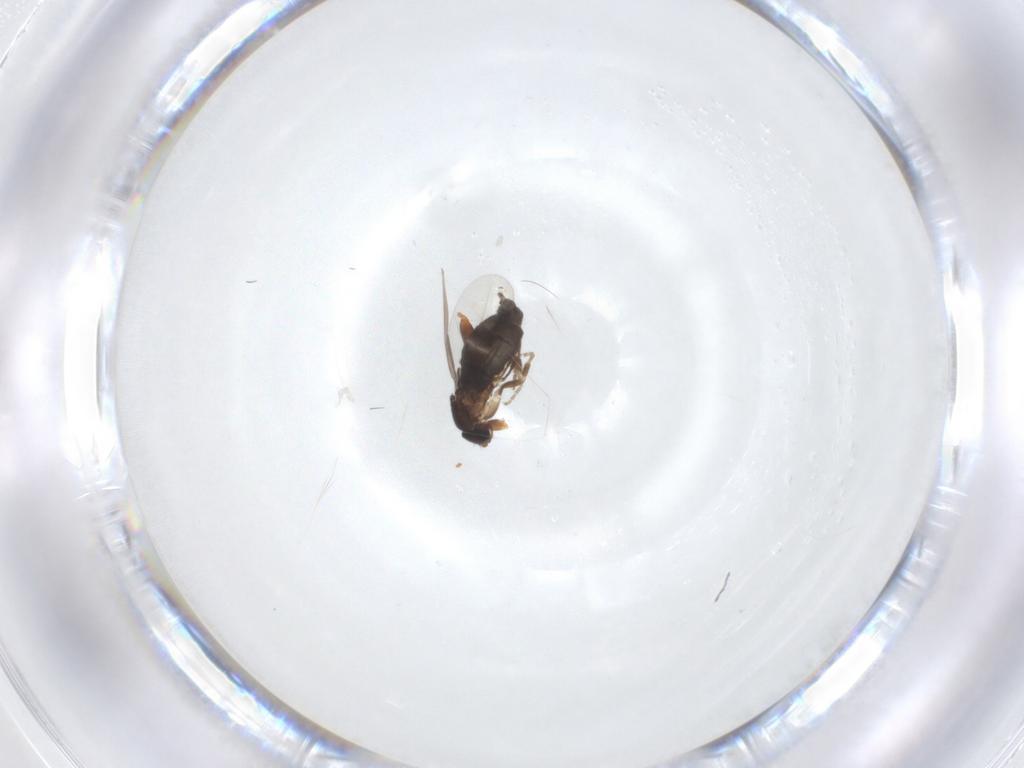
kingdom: Animalia
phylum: Arthropoda
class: Insecta
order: Diptera
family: Phoridae
